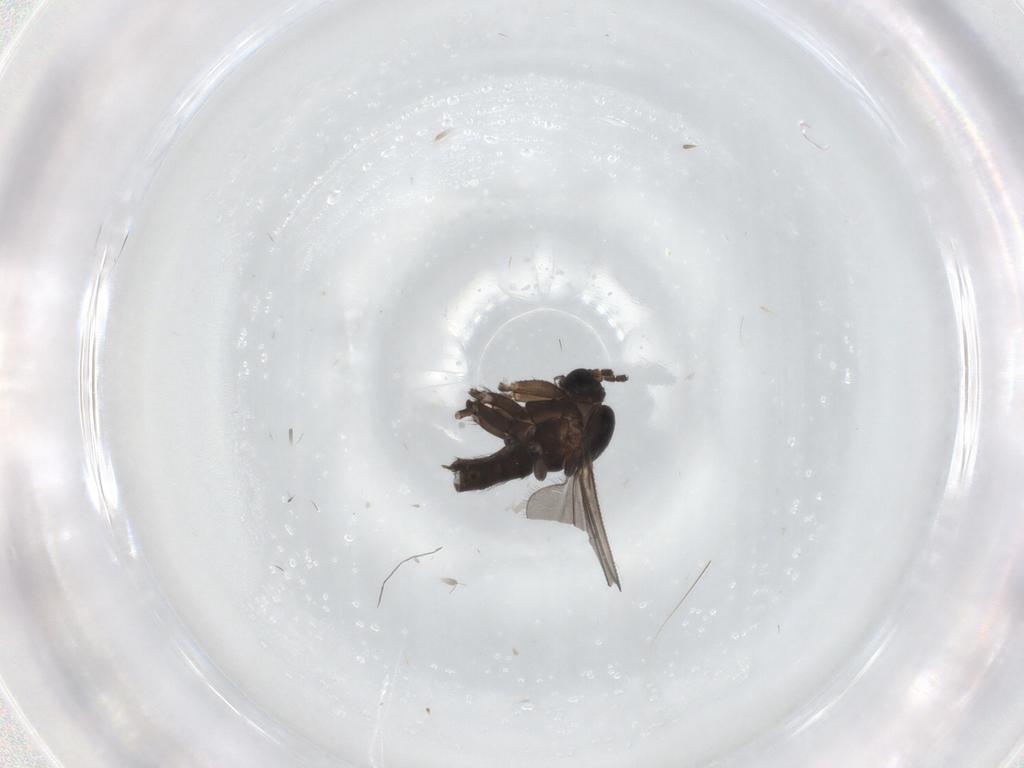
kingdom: Animalia
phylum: Arthropoda
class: Insecta
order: Diptera
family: Sciaridae
